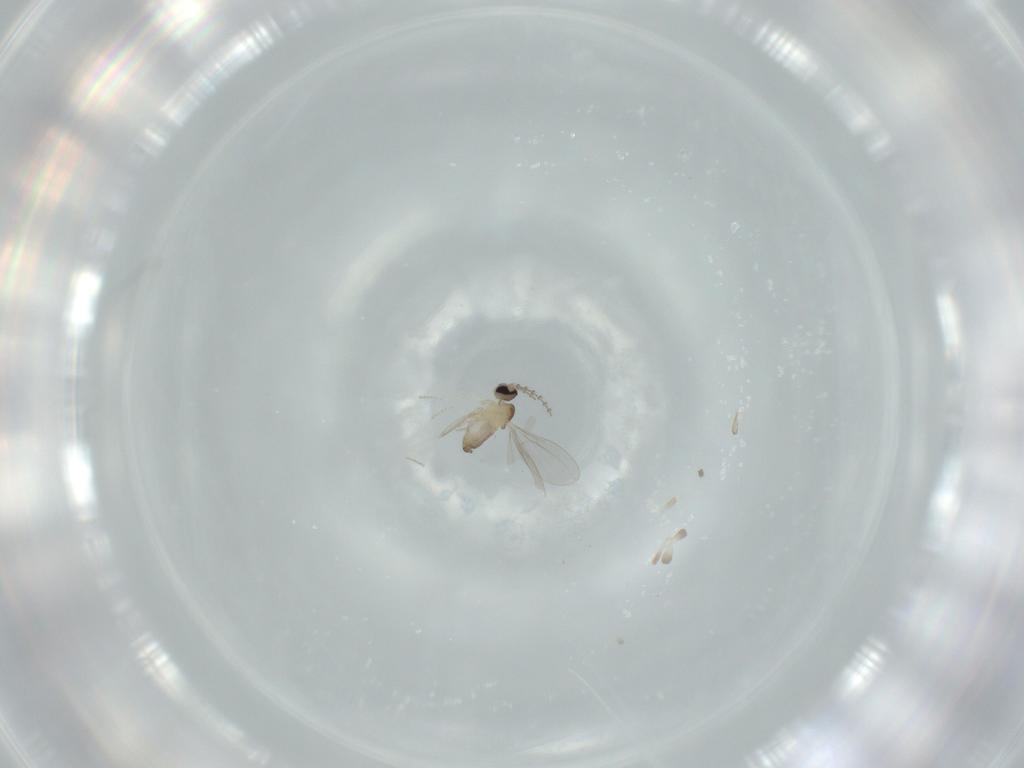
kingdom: Animalia
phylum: Arthropoda
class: Insecta
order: Diptera
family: Cecidomyiidae
